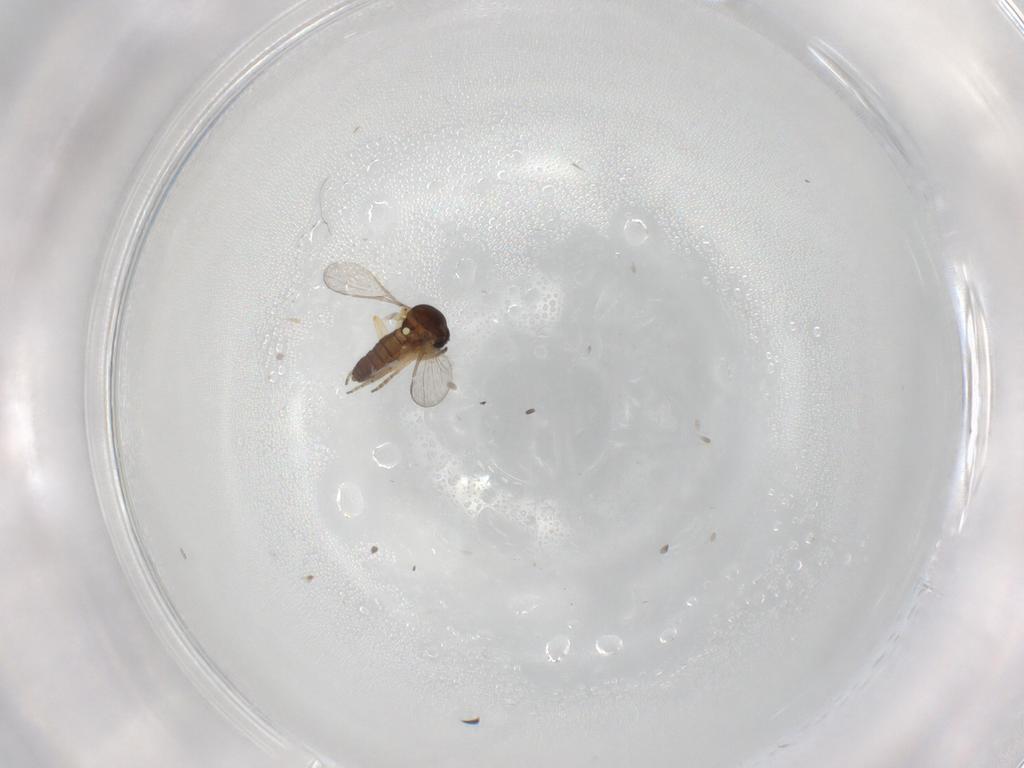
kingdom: Animalia
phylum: Arthropoda
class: Insecta
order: Diptera
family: Ceratopogonidae
